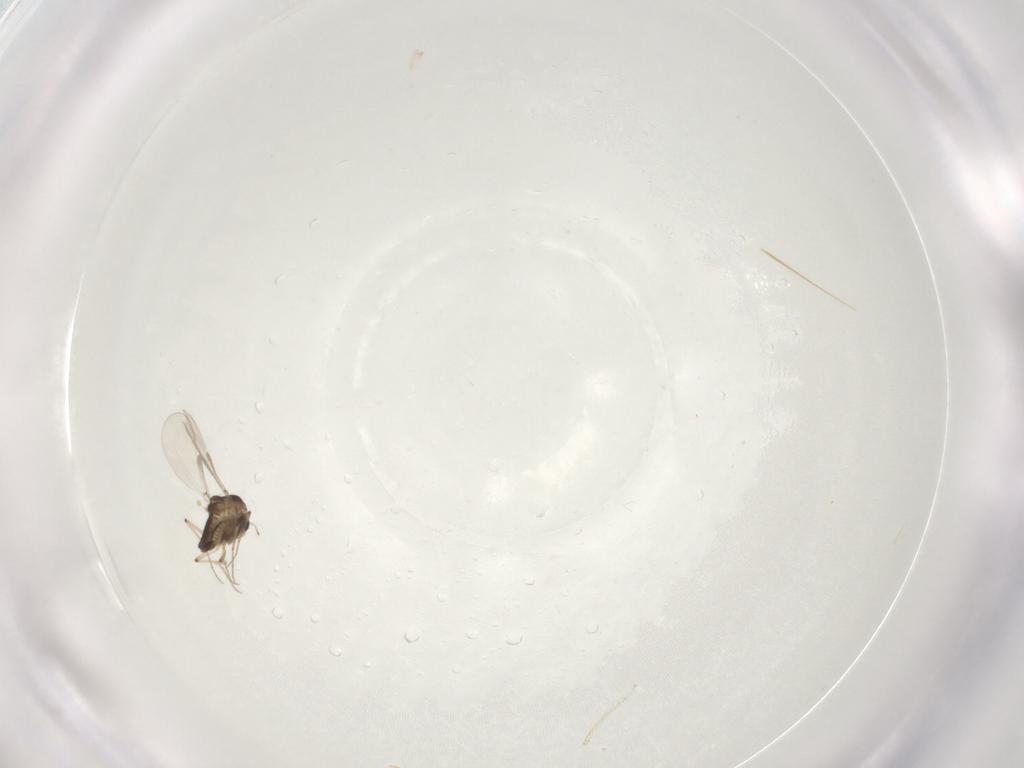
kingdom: Animalia
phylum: Arthropoda
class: Insecta
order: Diptera
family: Chironomidae
